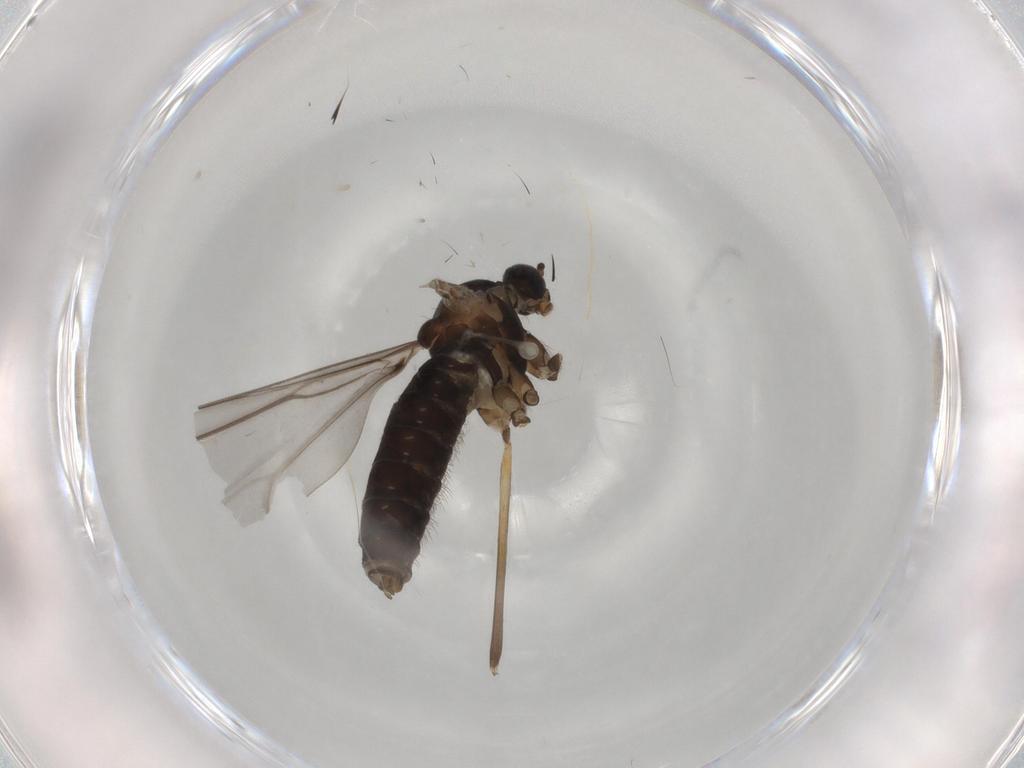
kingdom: Animalia
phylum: Arthropoda
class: Insecta
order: Diptera
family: Cecidomyiidae
